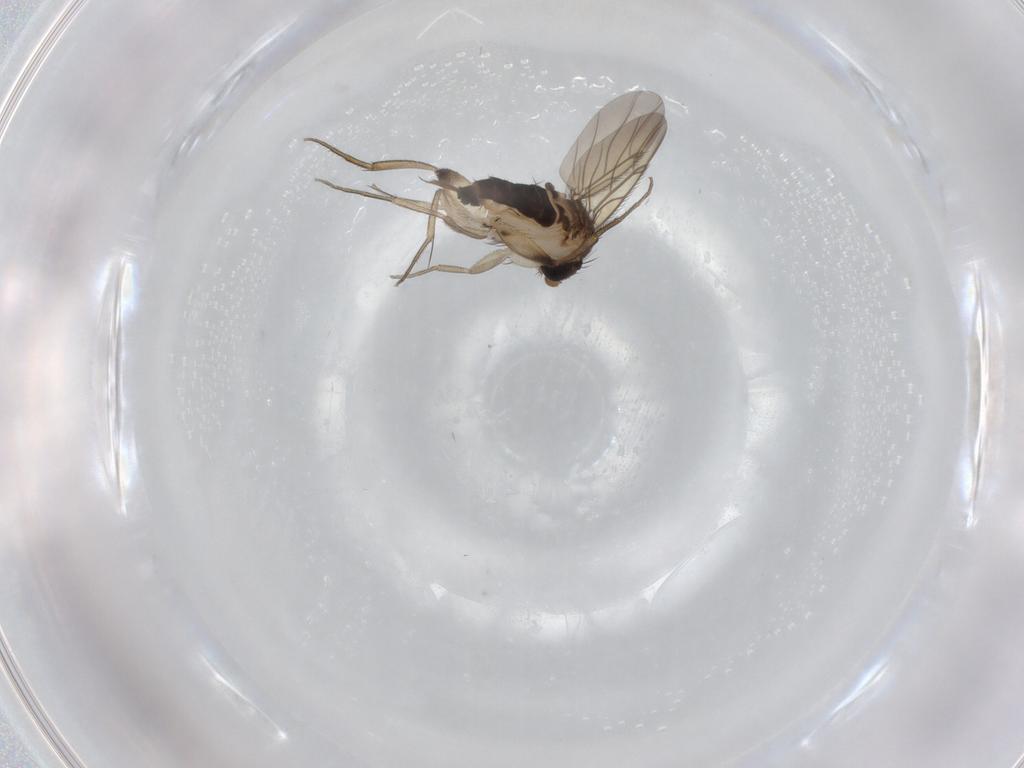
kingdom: Animalia
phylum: Arthropoda
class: Insecta
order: Diptera
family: Phoridae
